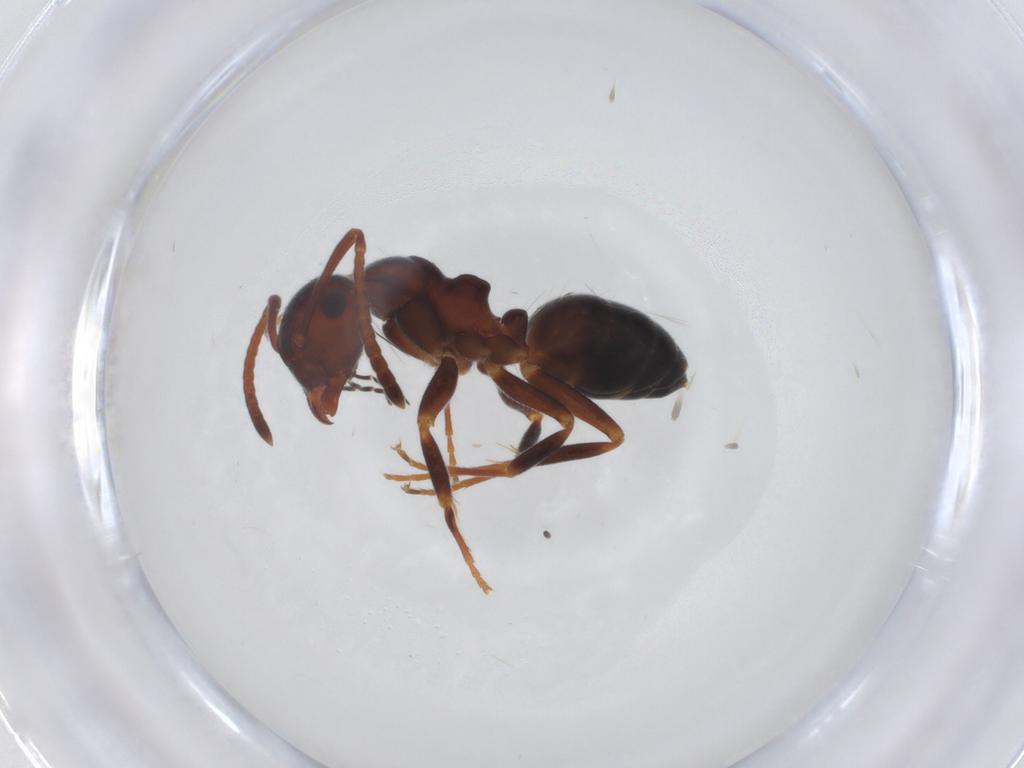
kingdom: Animalia
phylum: Arthropoda
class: Insecta
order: Hymenoptera
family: Formicidae
